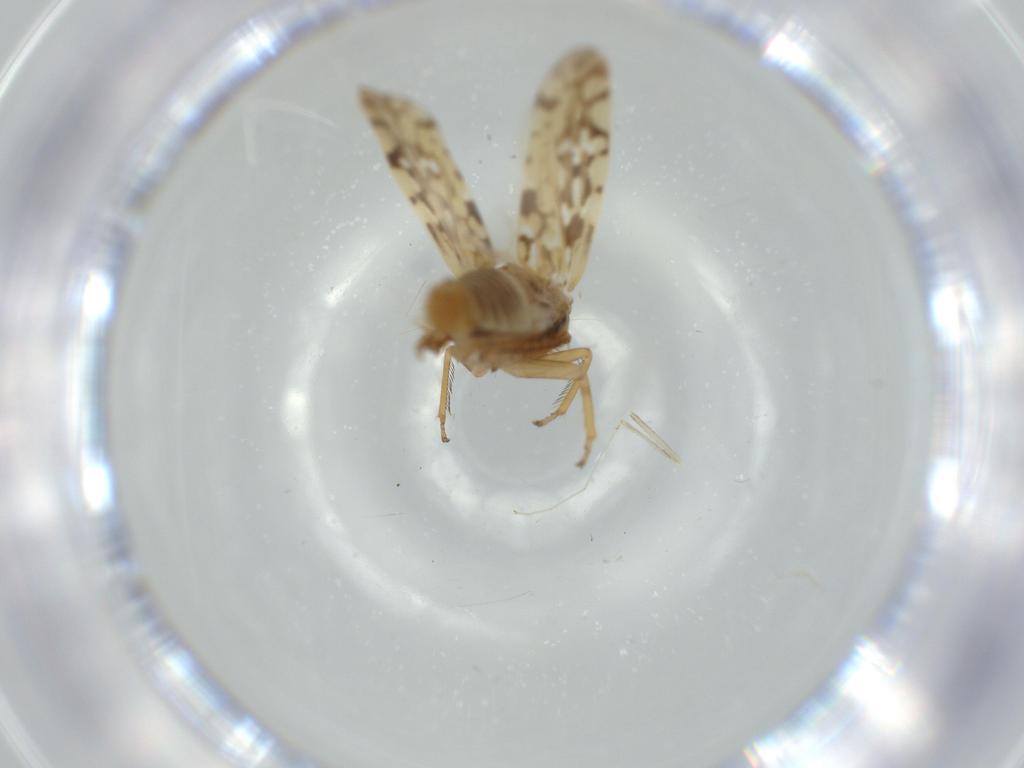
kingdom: Animalia
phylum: Arthropoda
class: Insecta
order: Hemiptera
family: Cicadellidae
